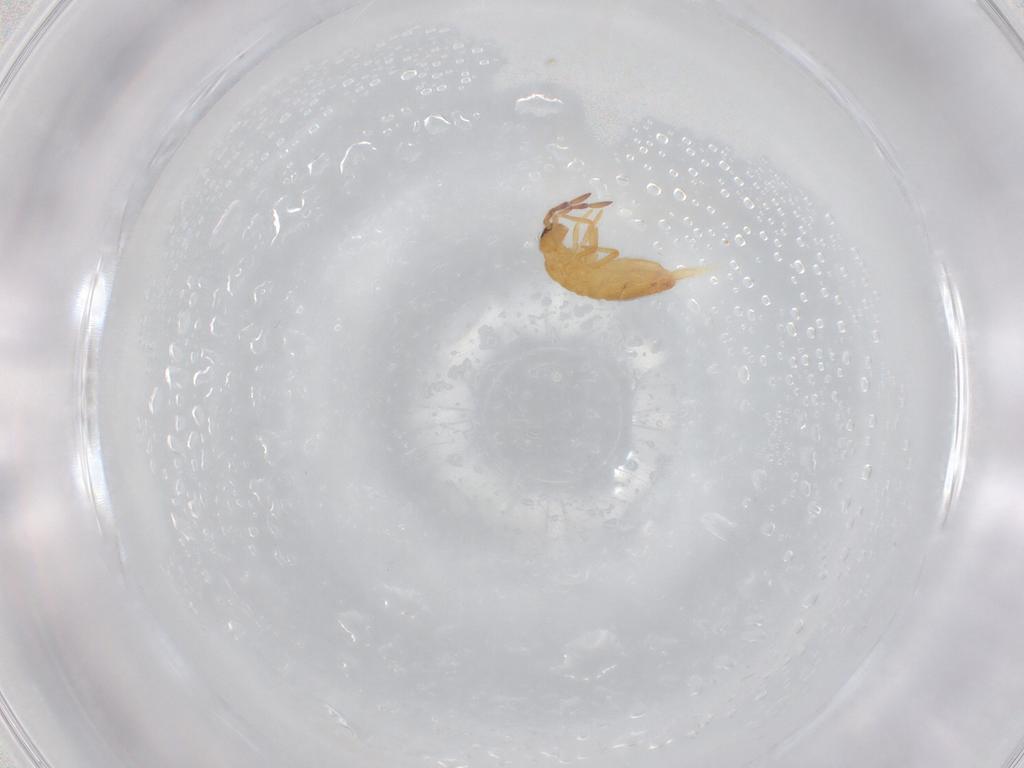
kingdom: Animalia
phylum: Arthropoda
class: Collembola
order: Entomobryomorpha
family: Entomobryidae
